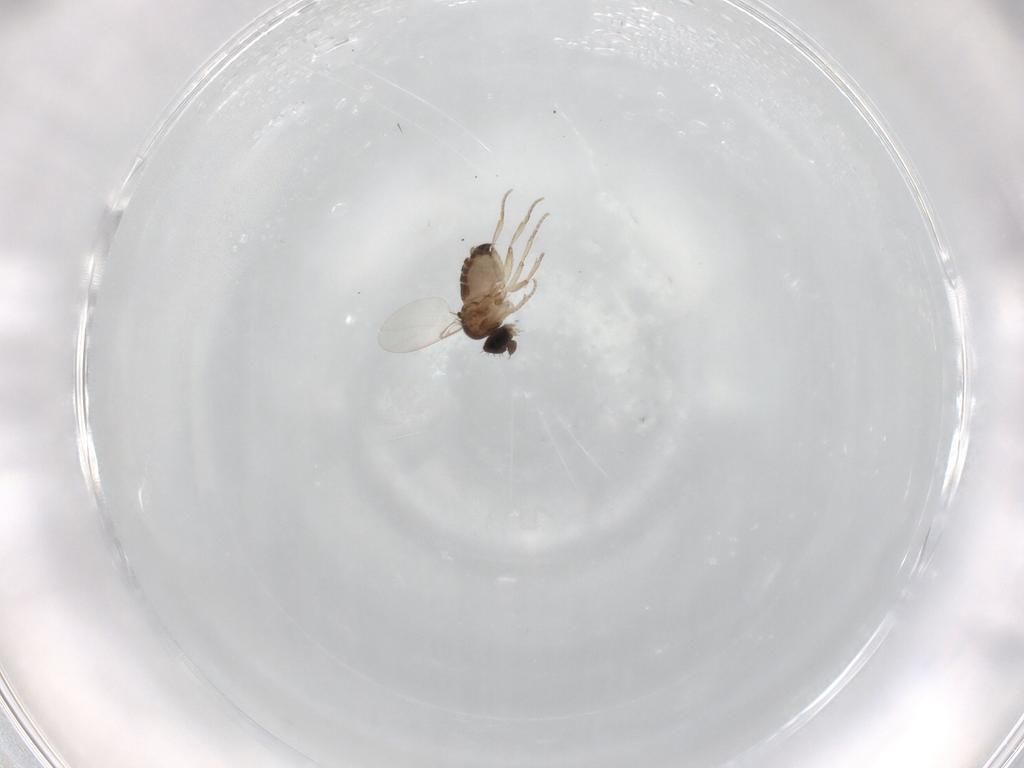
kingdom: Animalia
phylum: Arthropoda
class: Insecta
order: Diptera
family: Phoridae
